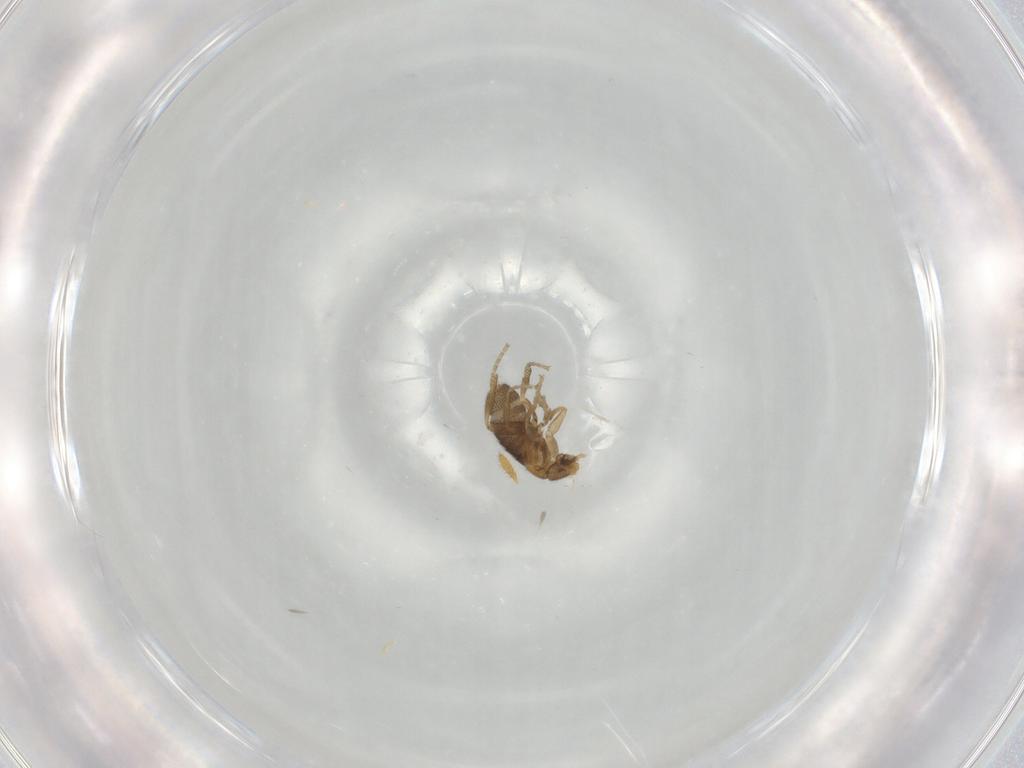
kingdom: Animalia
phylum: Arthropoda
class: Insecta
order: Diptera
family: Mycetophilidae
